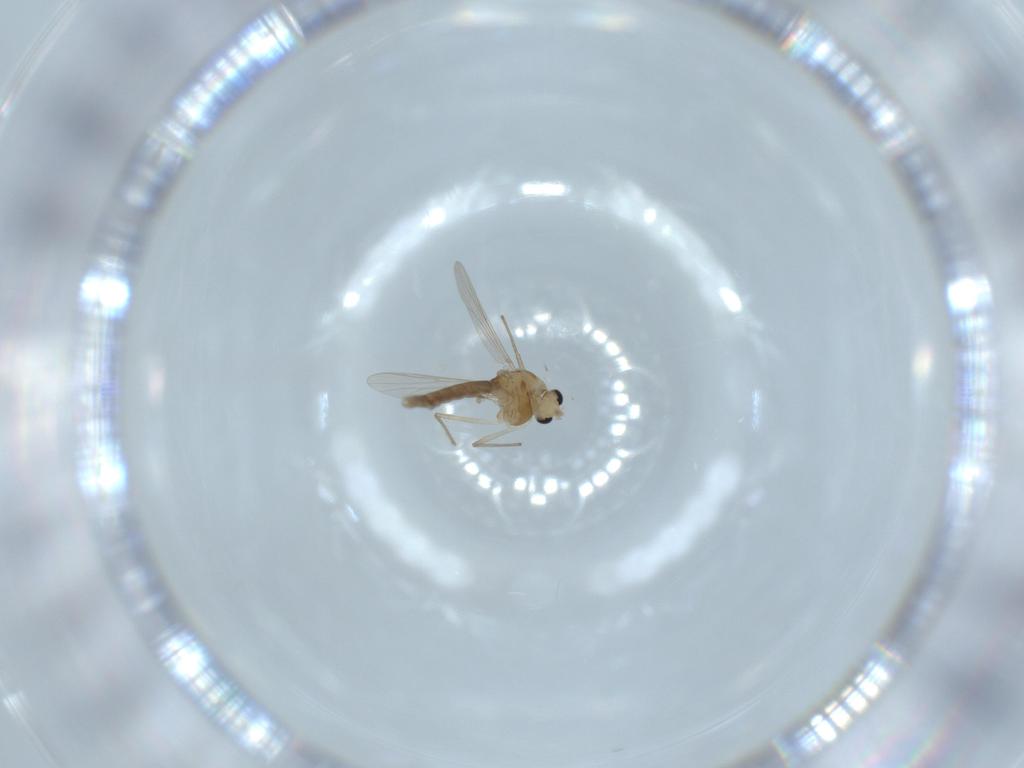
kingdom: Animalia
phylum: Arthropoda
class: Insecta
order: Diptera
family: Chironomidae
